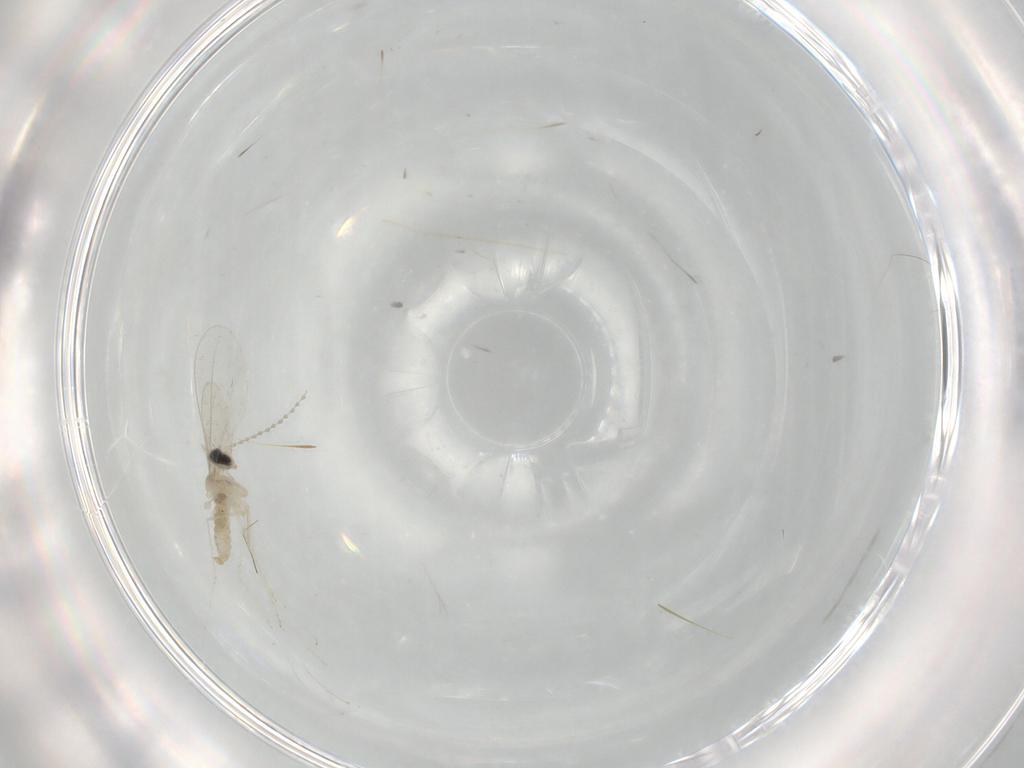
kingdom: Animalia
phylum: Arthropoda
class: Insecta
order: Diptera
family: Cecidomyiidae
